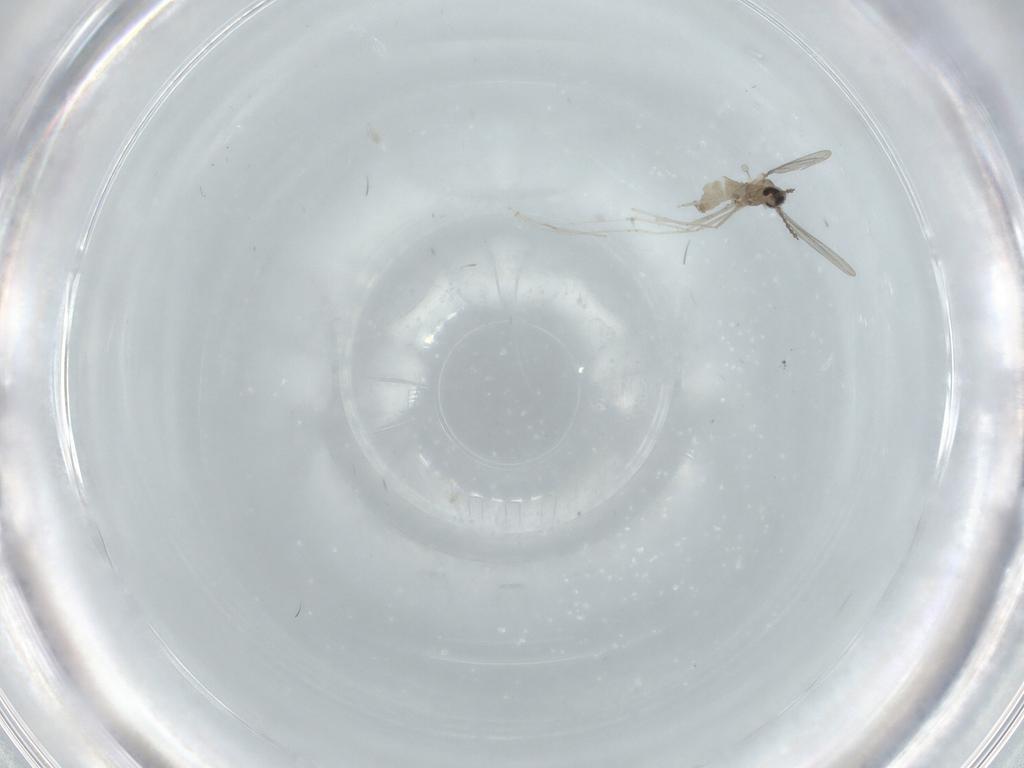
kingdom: Animalia
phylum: Arthropoda
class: Insecta
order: Diptera
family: Cecidomyiidae
